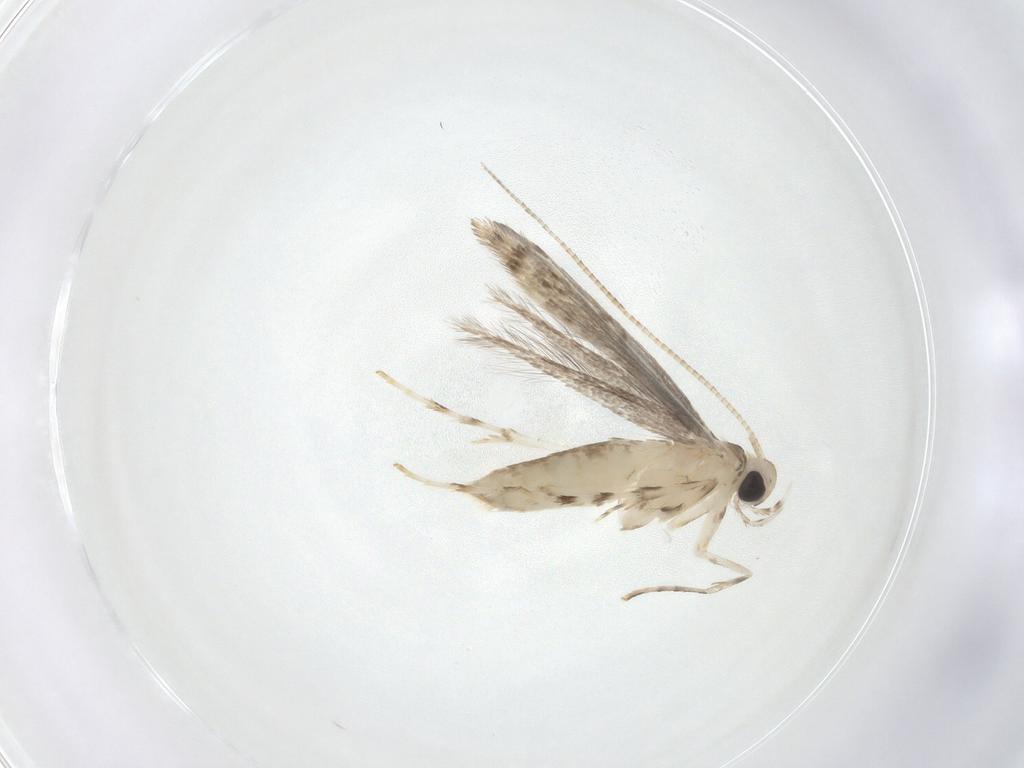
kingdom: Animalia
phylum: Arthropoda
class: Insecta
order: Lepidoptera
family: Gracillariidae
